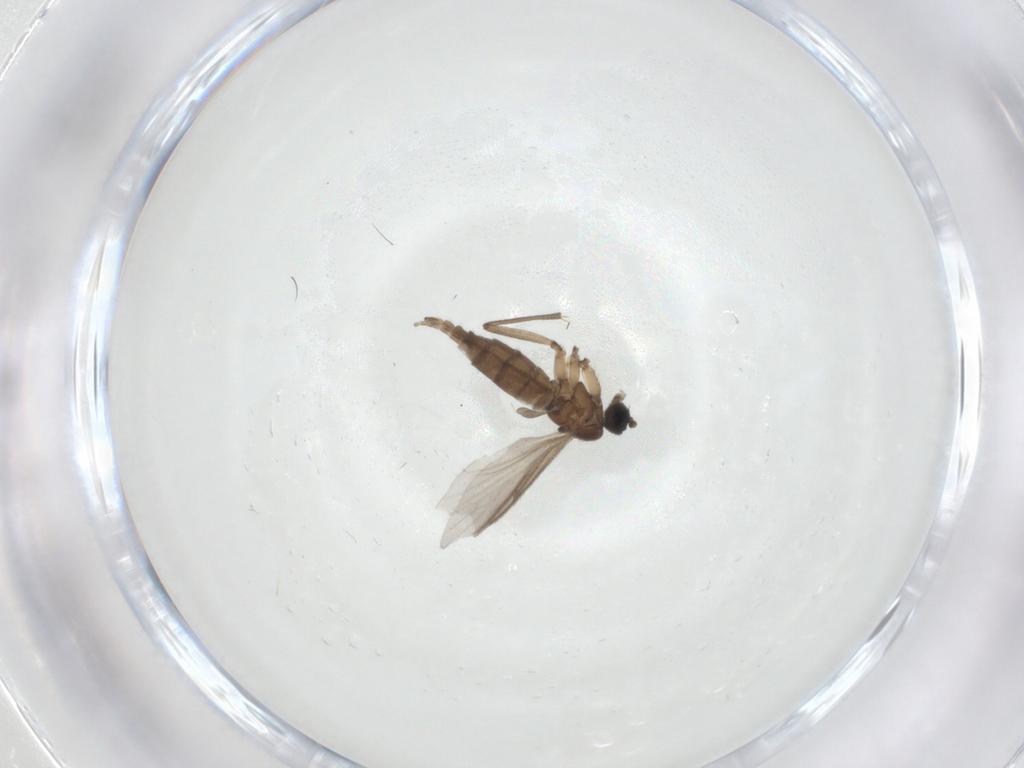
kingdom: Animalia
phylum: Arthropoda
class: Insecta
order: Diptera
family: Sciaridae
